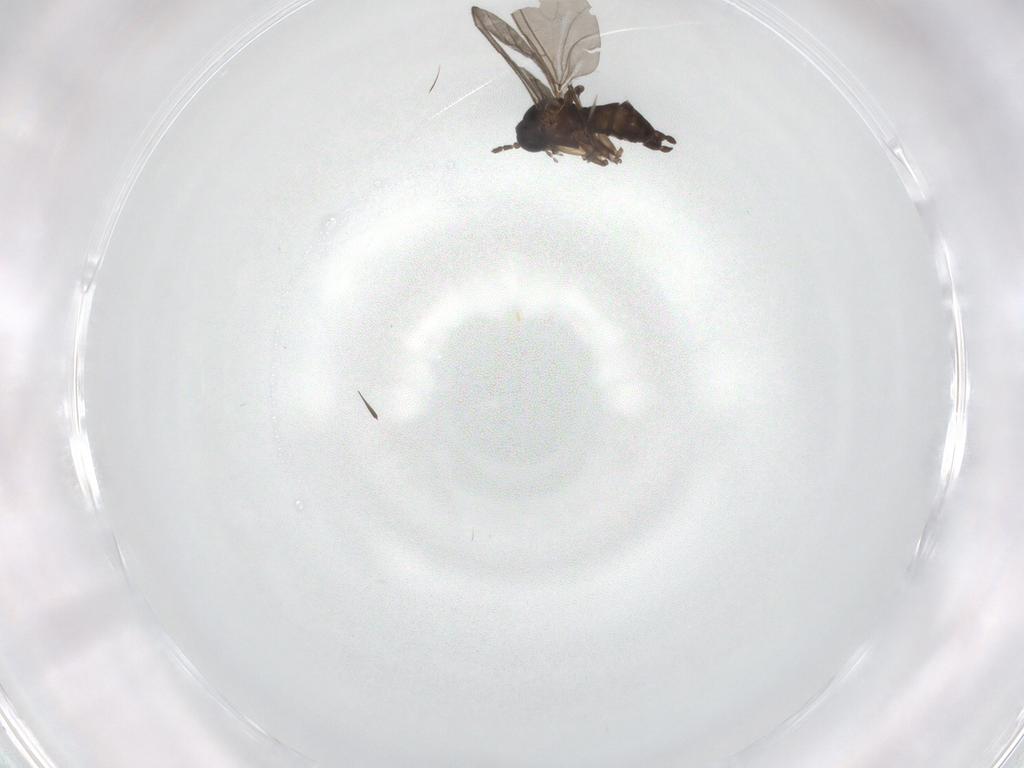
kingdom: Animalia
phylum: Arthropoda
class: Insecta
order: Diptera
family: Sciaridae
